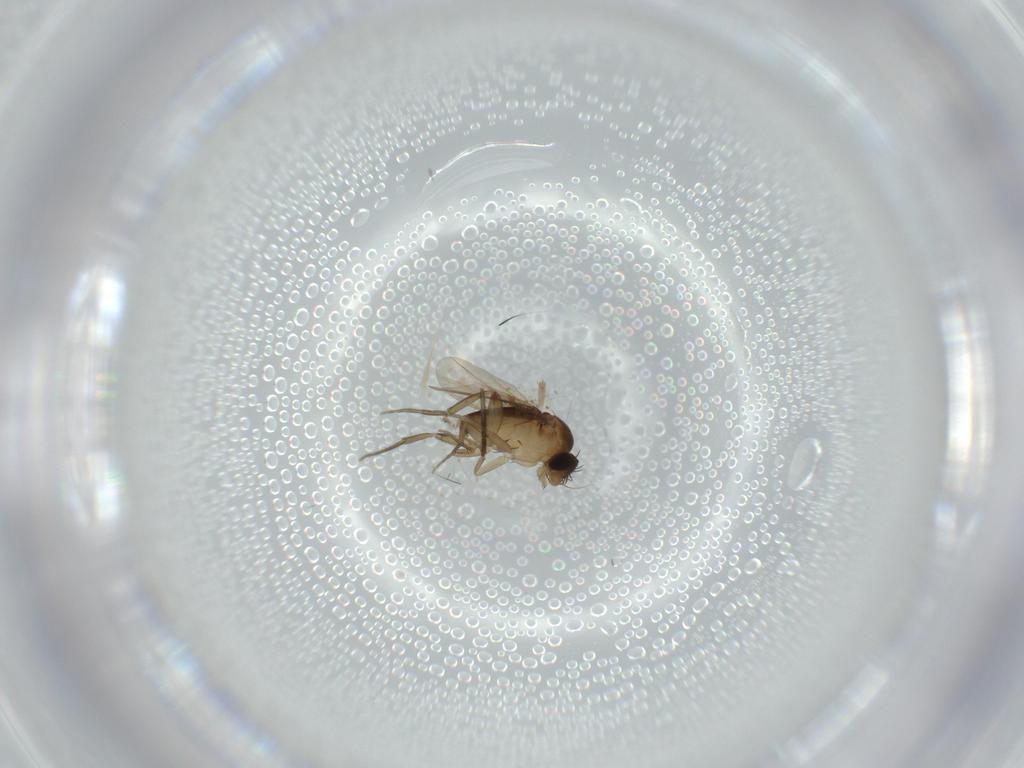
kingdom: Animalia
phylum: Arthropoda
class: Insecta
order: Diptera
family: Phoridae
